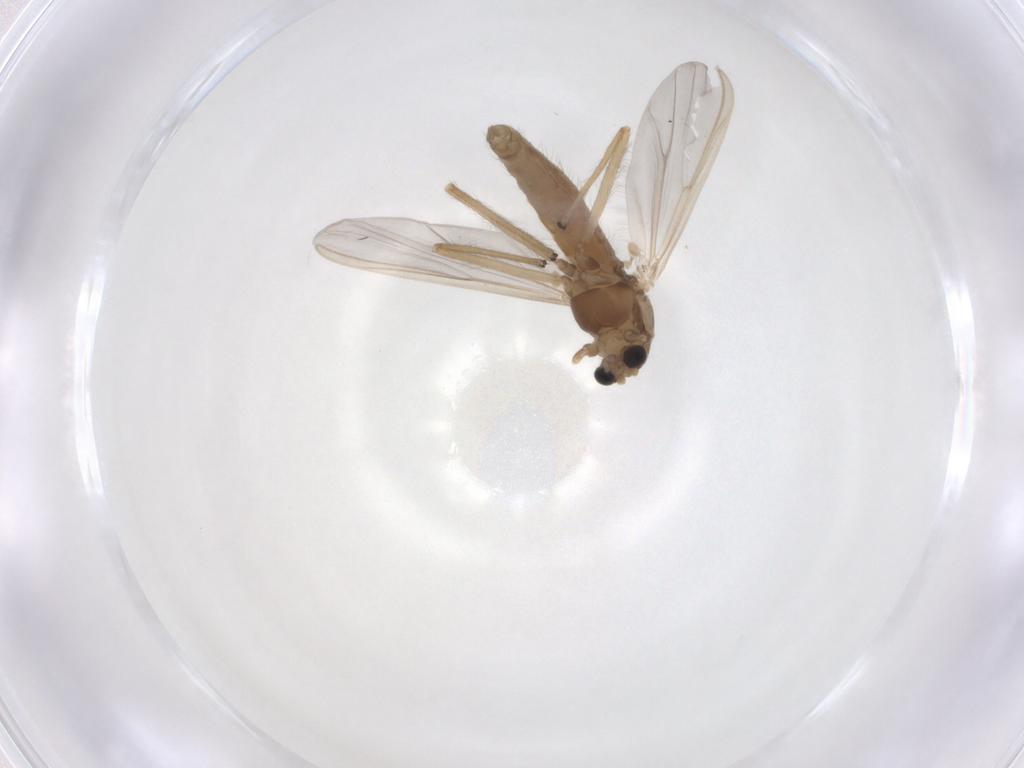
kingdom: Animalia
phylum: Arthropoda
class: Insecta
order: Diptera
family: Chironomidae
